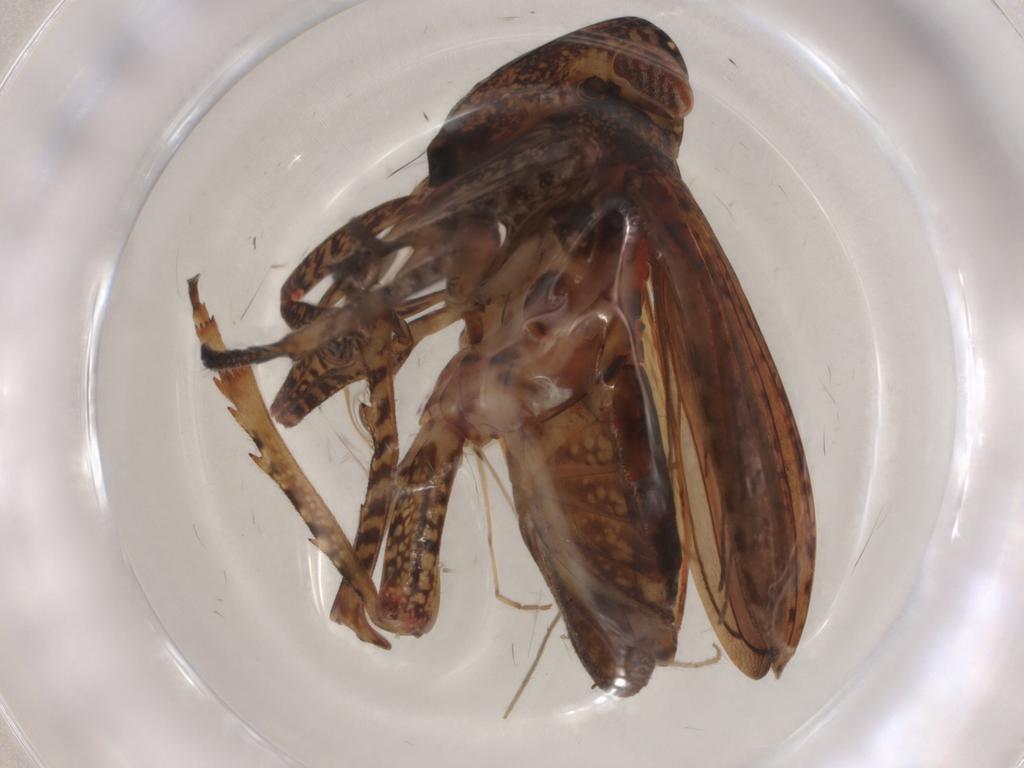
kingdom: Animalia
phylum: Arthropoda
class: Insecta
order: Hemiptera
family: Tropiduchidae
